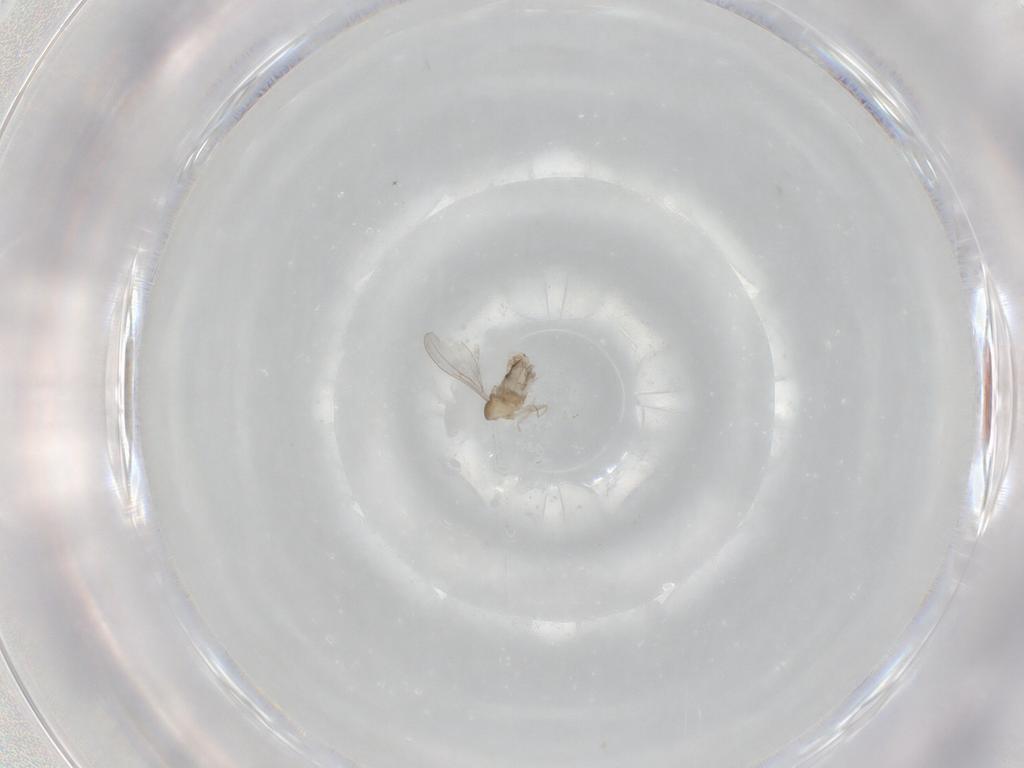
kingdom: Animalia
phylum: Arthropoda
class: Insecta
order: Diptera
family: Cecidomyiidae
